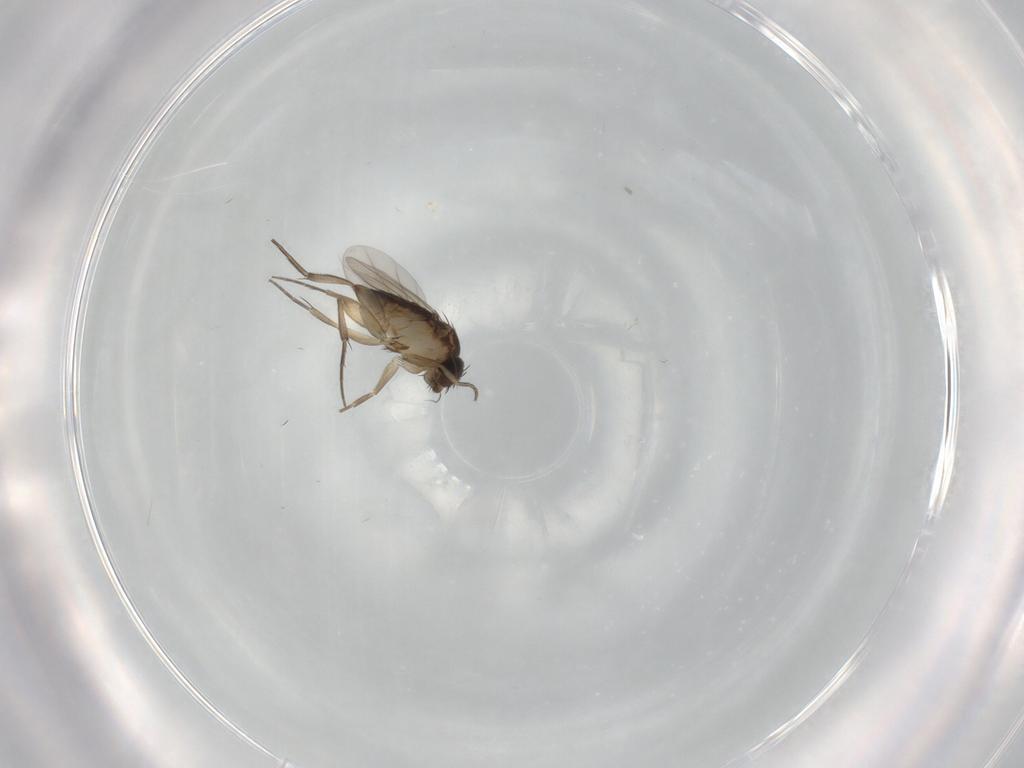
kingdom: Animalia
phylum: Arthropoda
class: Insecta
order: Diptera
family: Phoridae
